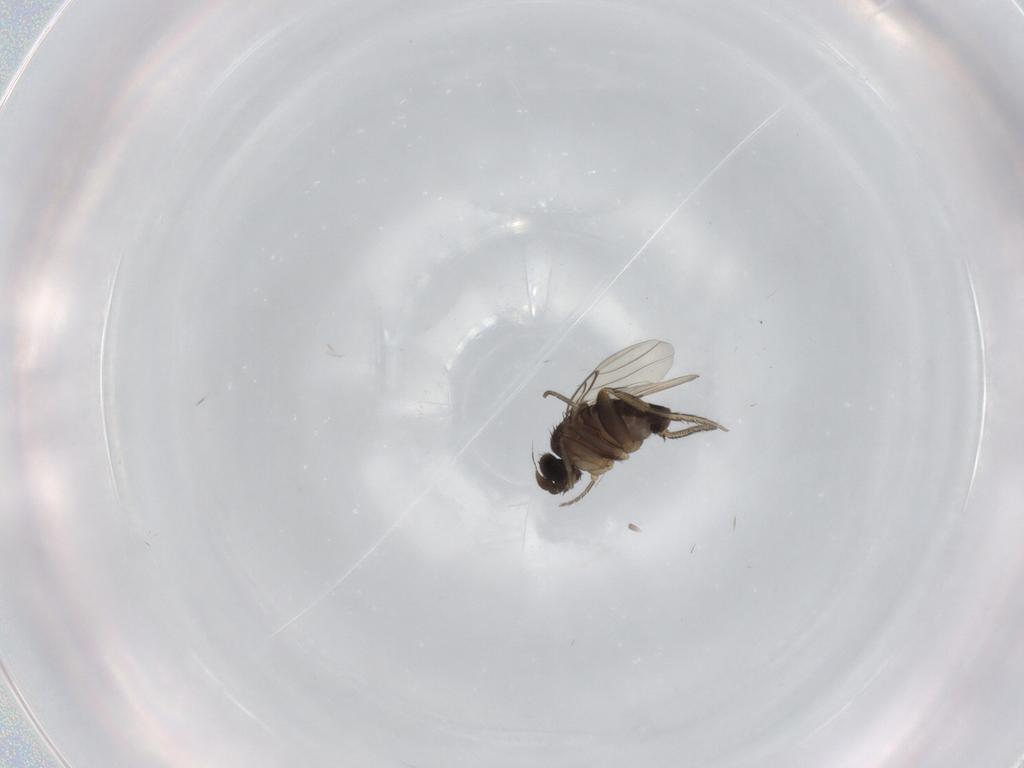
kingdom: Animalia
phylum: Arthropoda
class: Insecta
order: Diptera
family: Phoridae
